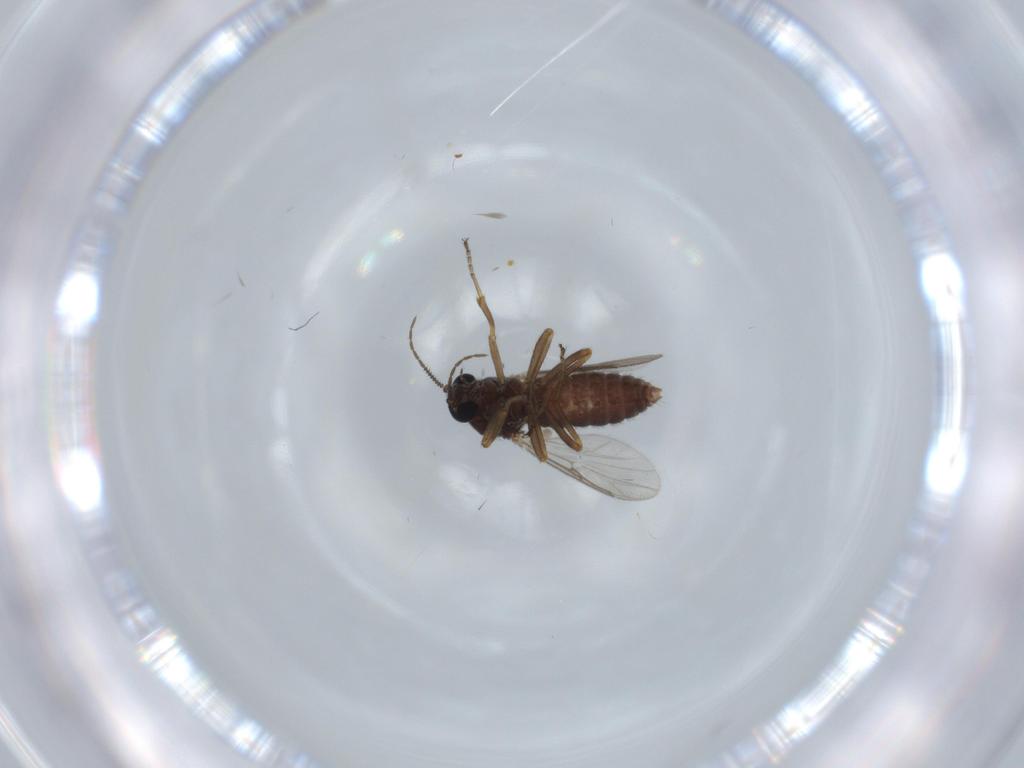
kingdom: Animalia
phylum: Arthropoda
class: Insecta
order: Diptera
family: Ceratopogonidae
